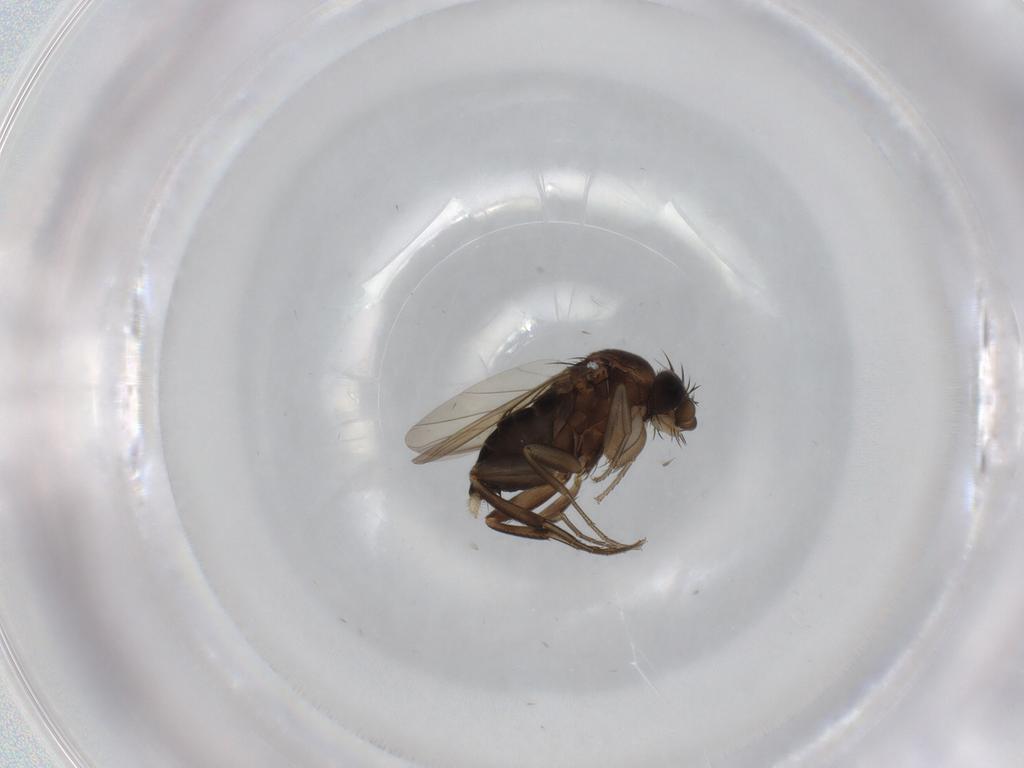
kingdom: Animalia
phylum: Arthropoda
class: Insecta
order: Diptera
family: Phoridae
